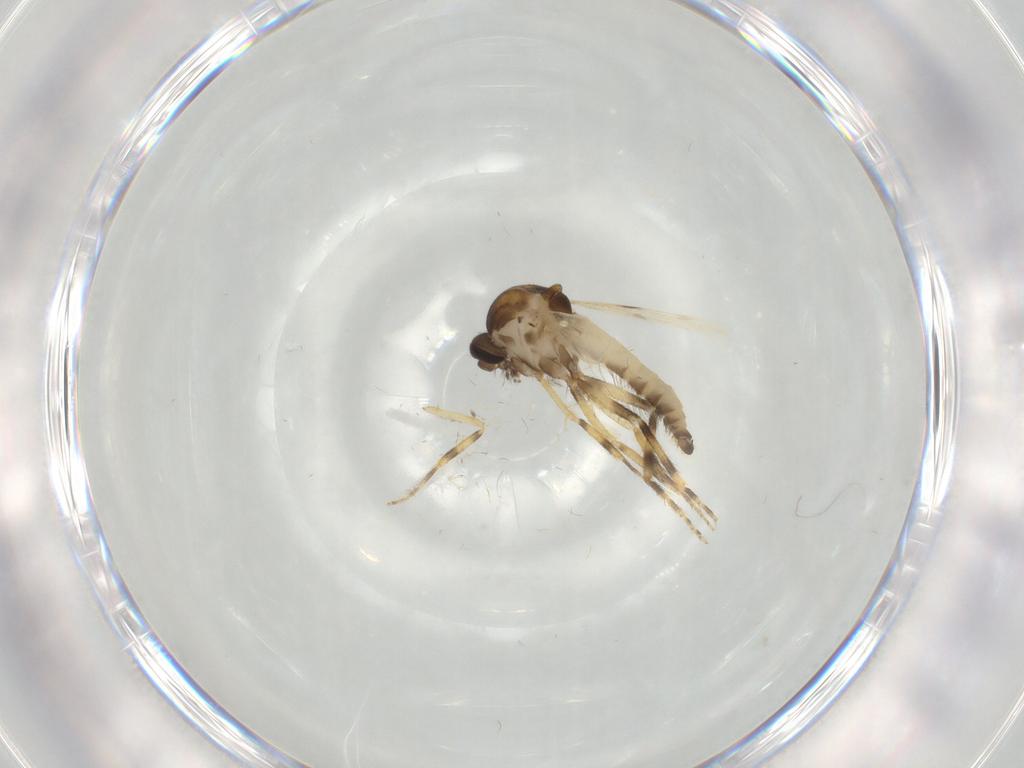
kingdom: Animalia
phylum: Arthropoda
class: Insecta
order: Diptera
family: Ceratopogonidae
